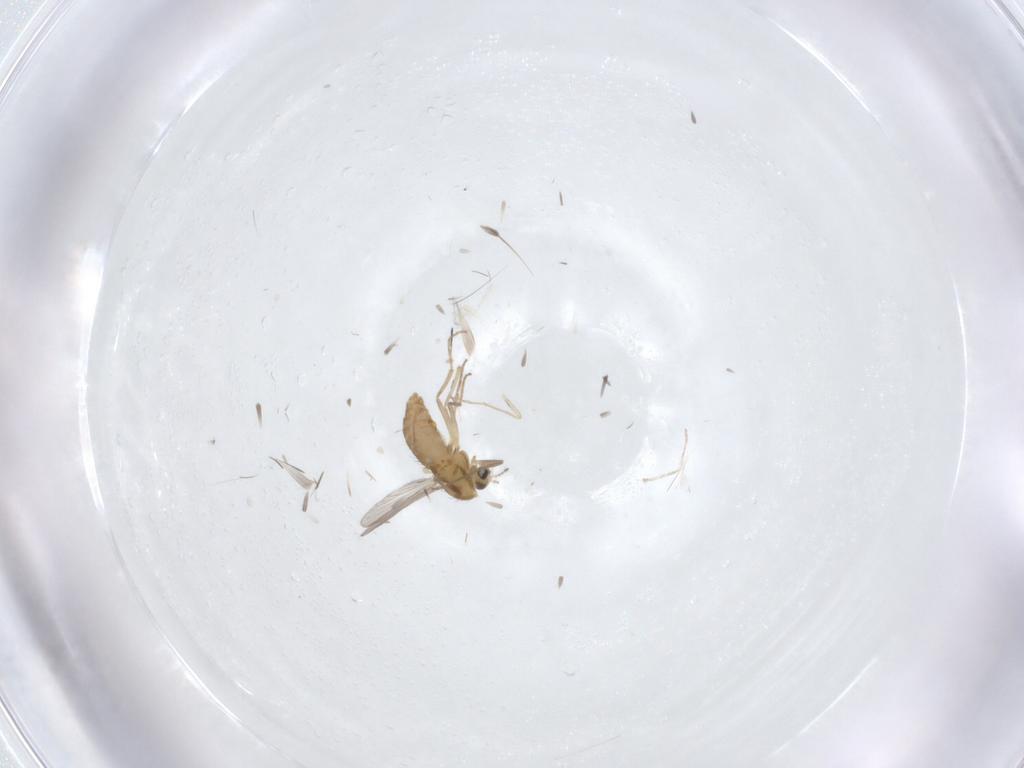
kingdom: Animalia
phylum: Arthropoda
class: Insecta
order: Diptera
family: Chironomidae
